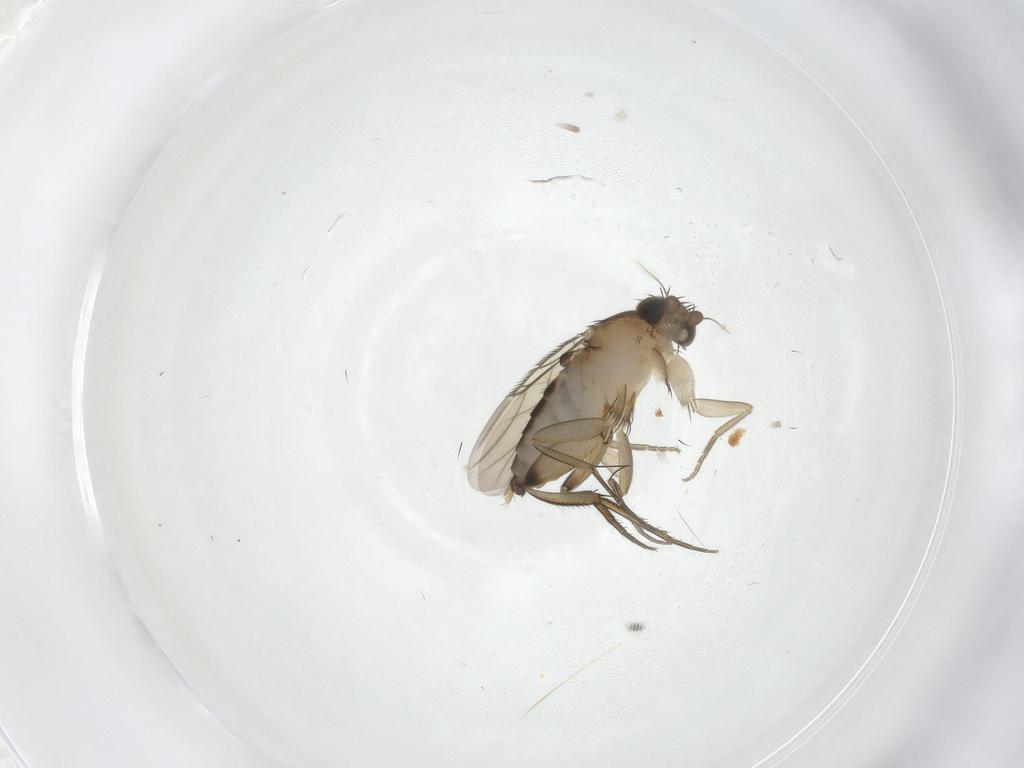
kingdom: Animalia
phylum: Arthropoda
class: Insecta
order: Diptera
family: Phoridae
